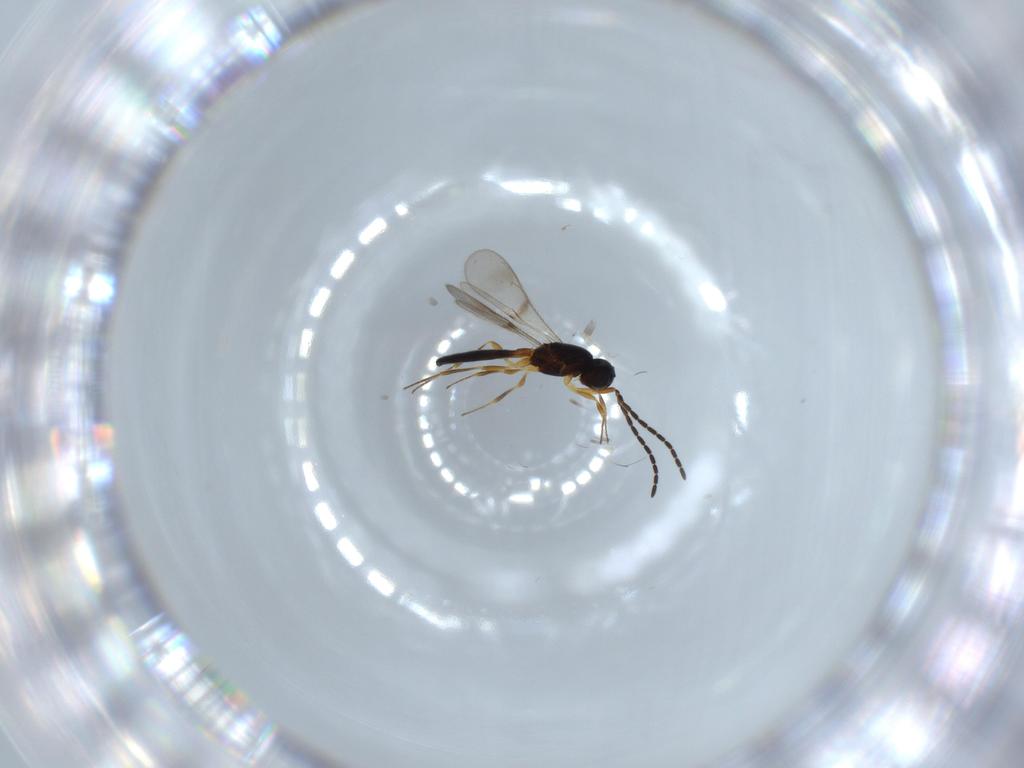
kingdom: Animalia
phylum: Arthropoda
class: Insecta
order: Hymenoptera
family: Scelionidae
